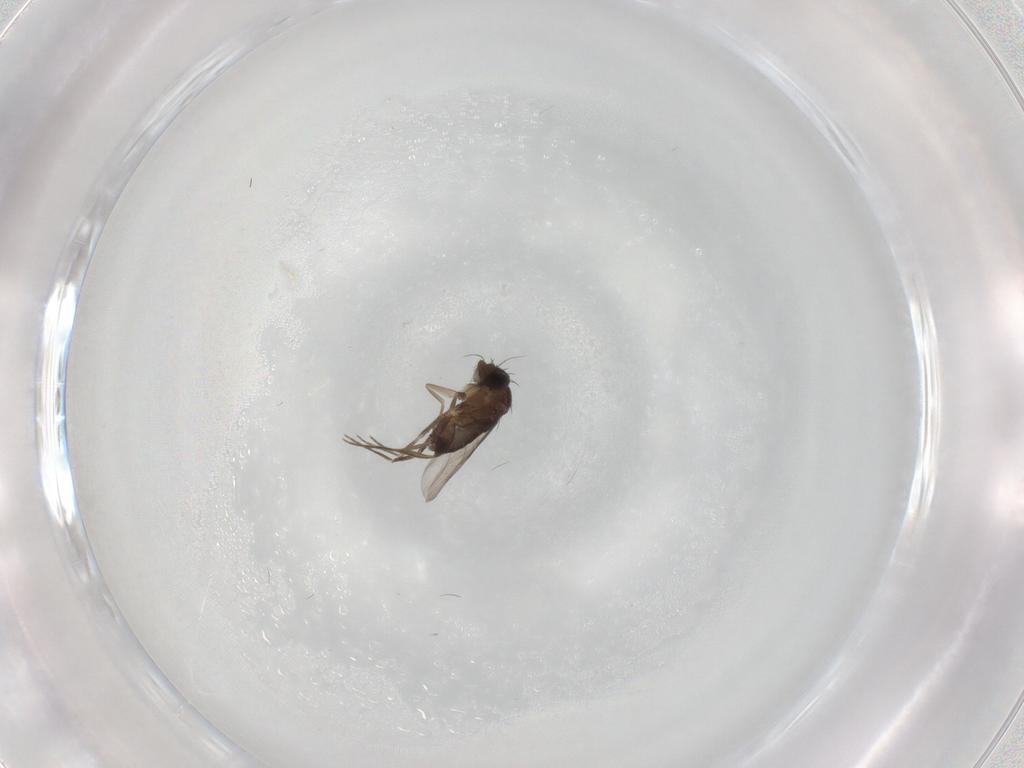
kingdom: Animalia
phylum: Arthropoda
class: Insecta
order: Diptera
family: Phoridae
